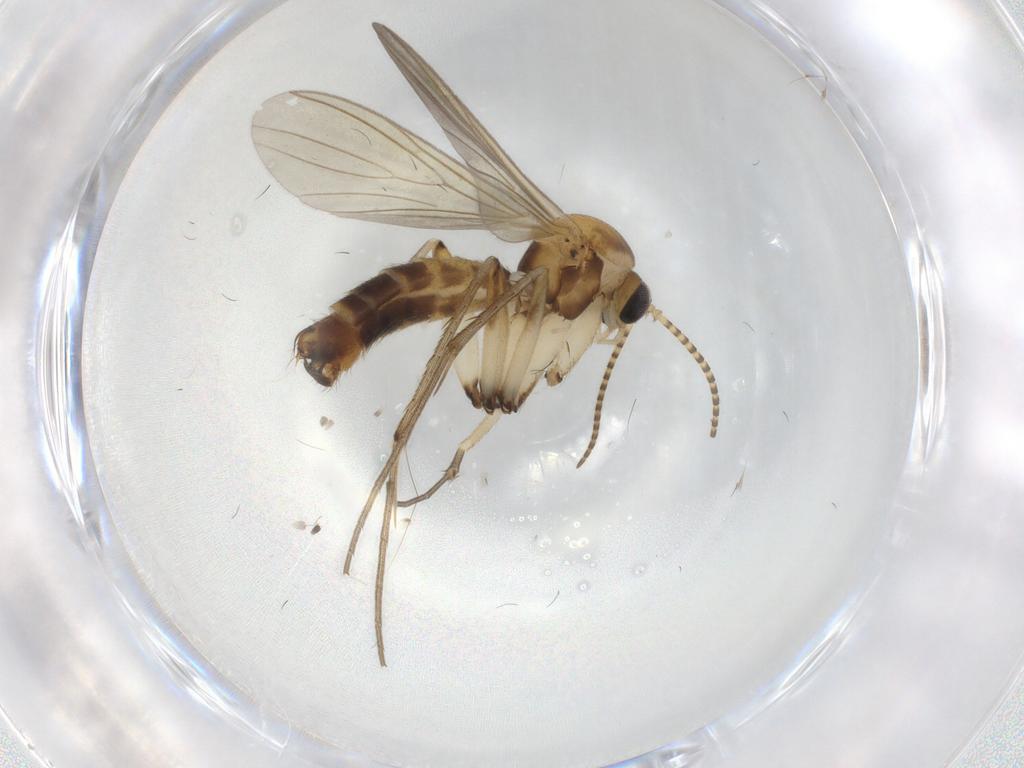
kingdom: Animalia
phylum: Arthropoda
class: Insecta
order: Diptera
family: Mycetophilidae
